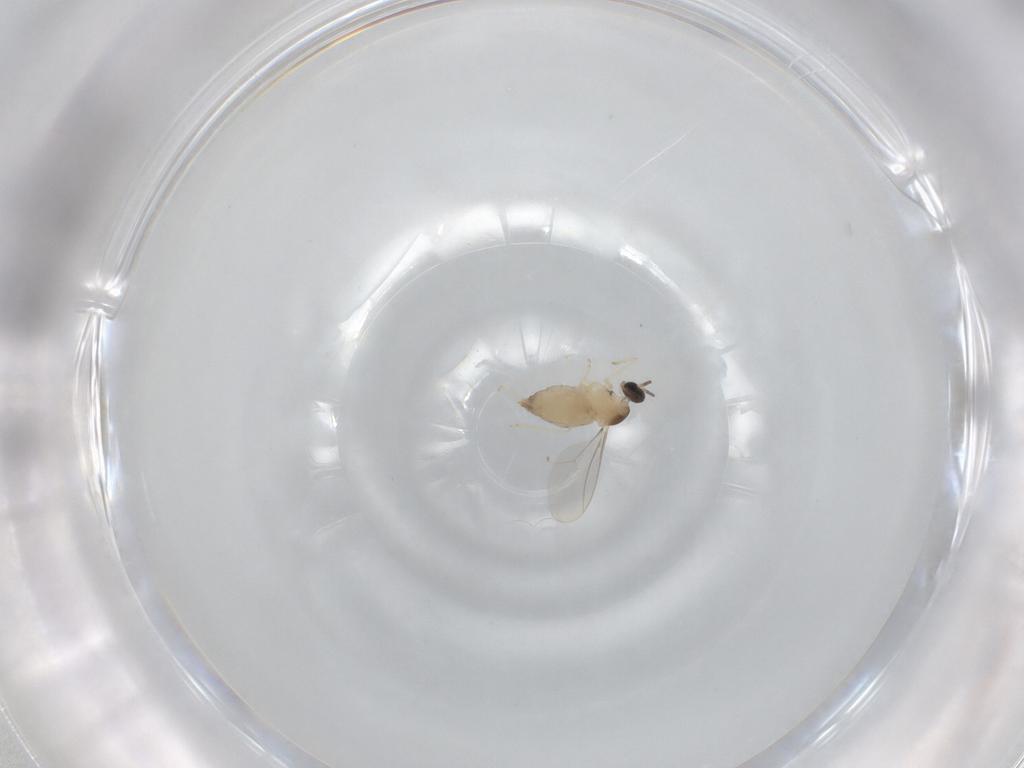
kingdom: Animalia
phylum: Arthropoda
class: Insecta
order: Diptera
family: Cecidomyiidae
